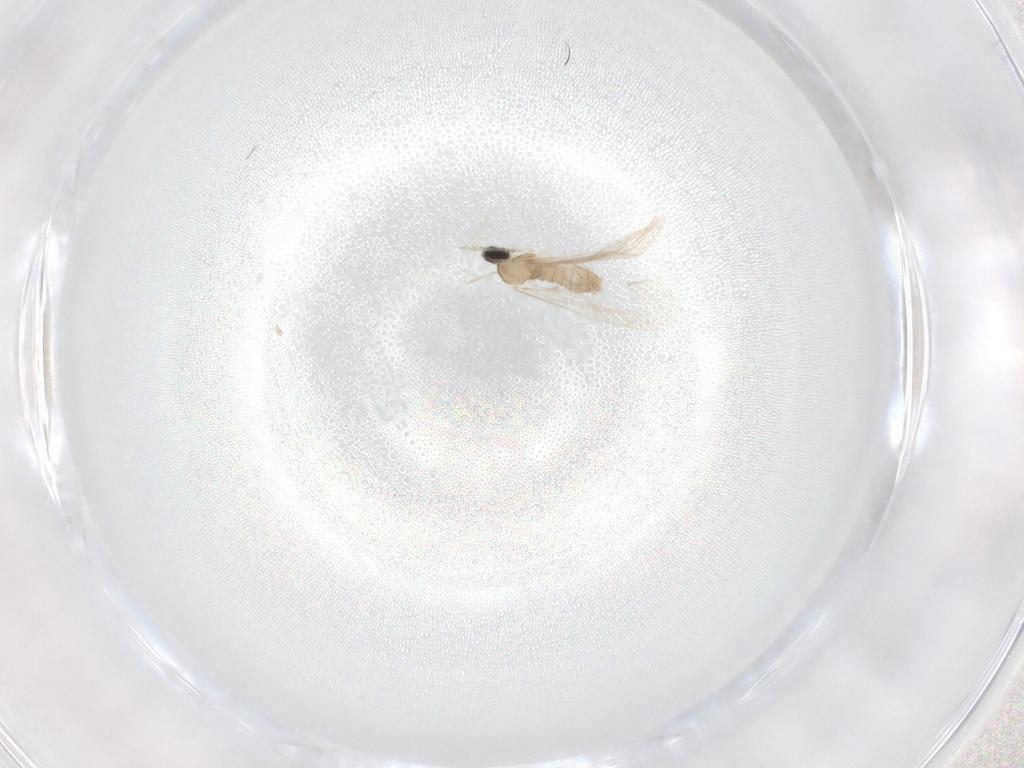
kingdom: Animalia
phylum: Arthropoda
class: Insecta
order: Diptera
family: Cecidomyiidae
